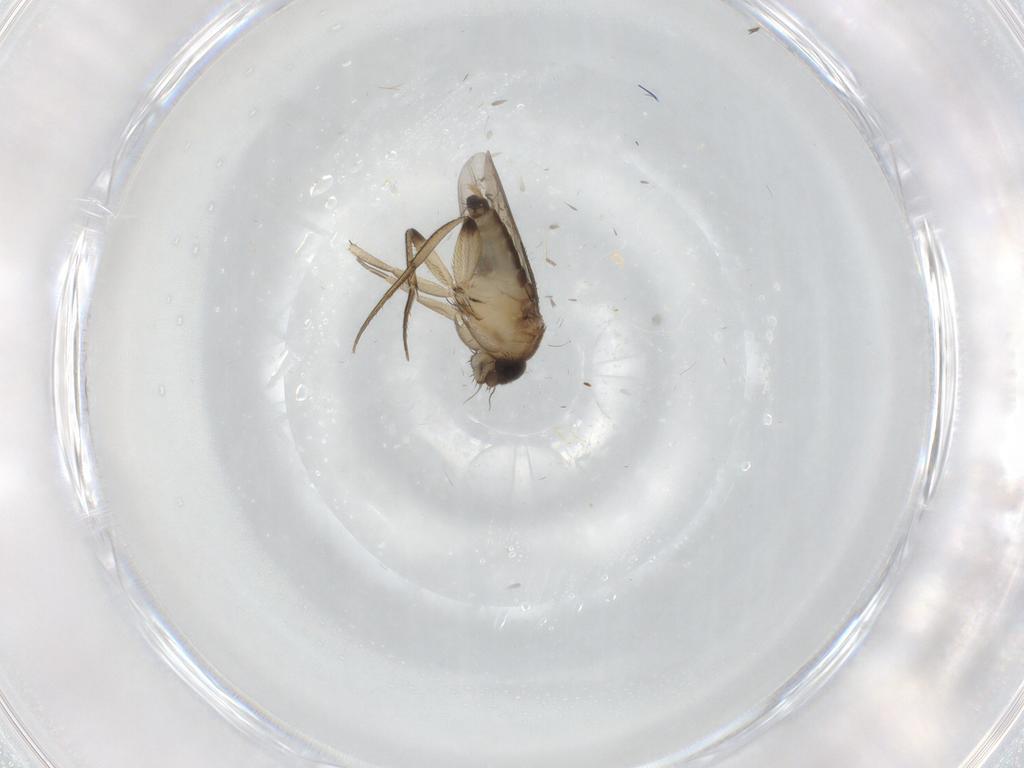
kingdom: Animalia
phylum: Arthropoda
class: Insecta
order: Diptera
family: Phoridae
